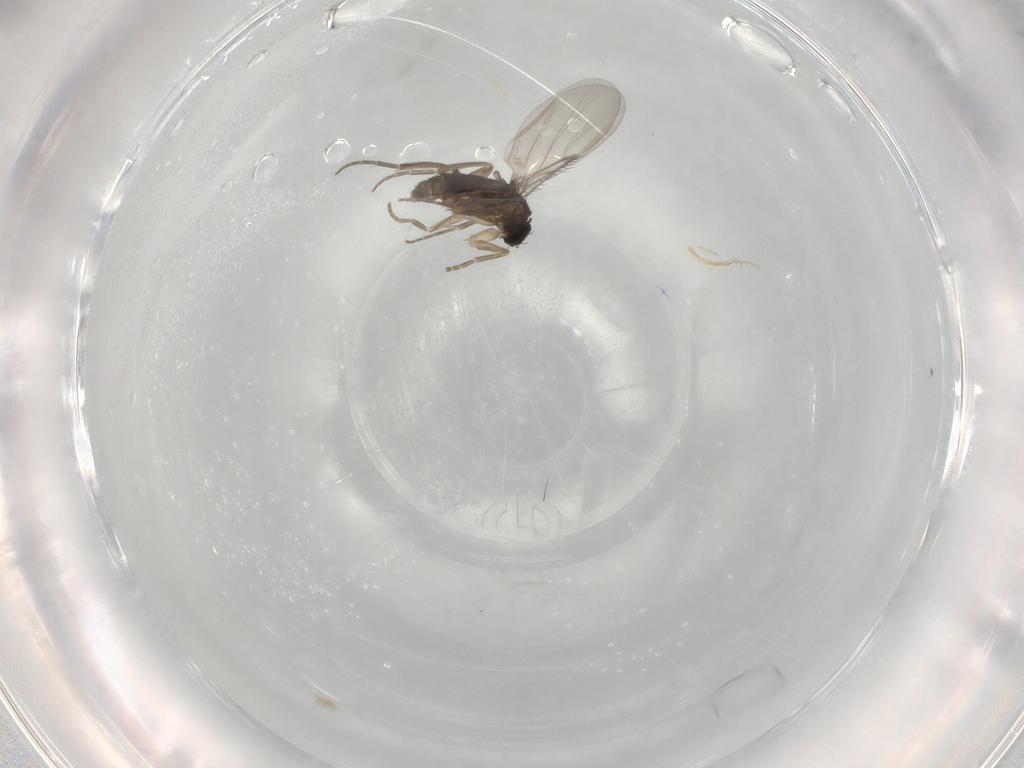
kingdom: Animalia
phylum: Arthropoda
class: Insecta
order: Diptera
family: Phoridae
